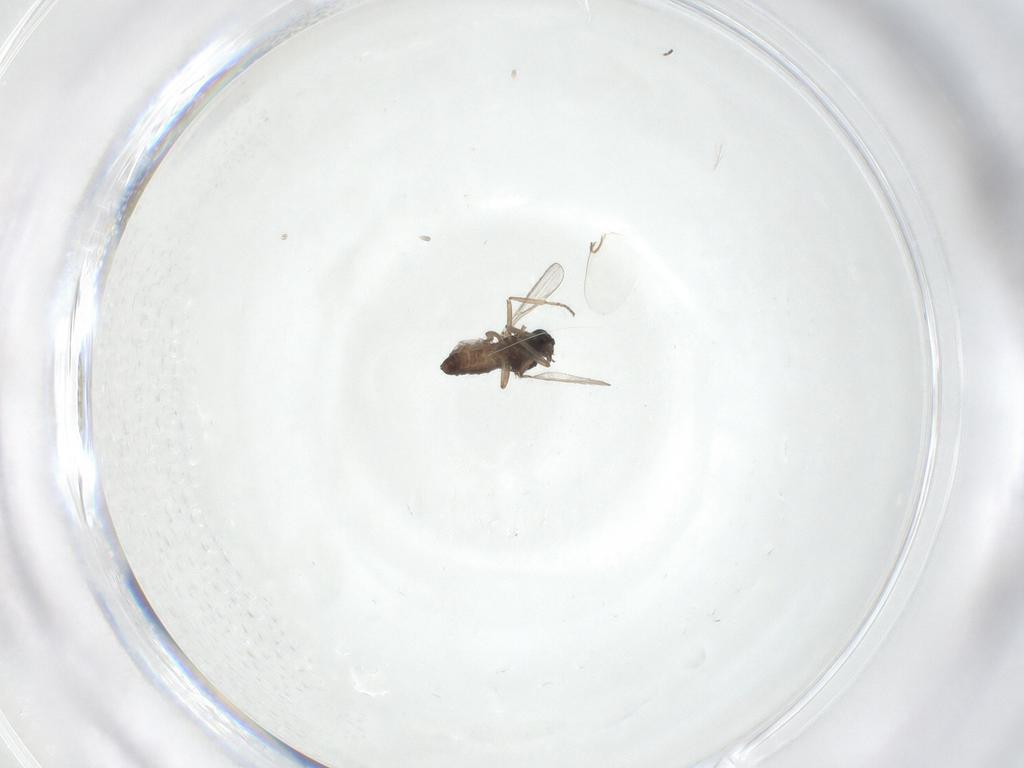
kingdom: Animalia
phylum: Arthropoda
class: Insecta
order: Diptera
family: Ceratopogonidae
